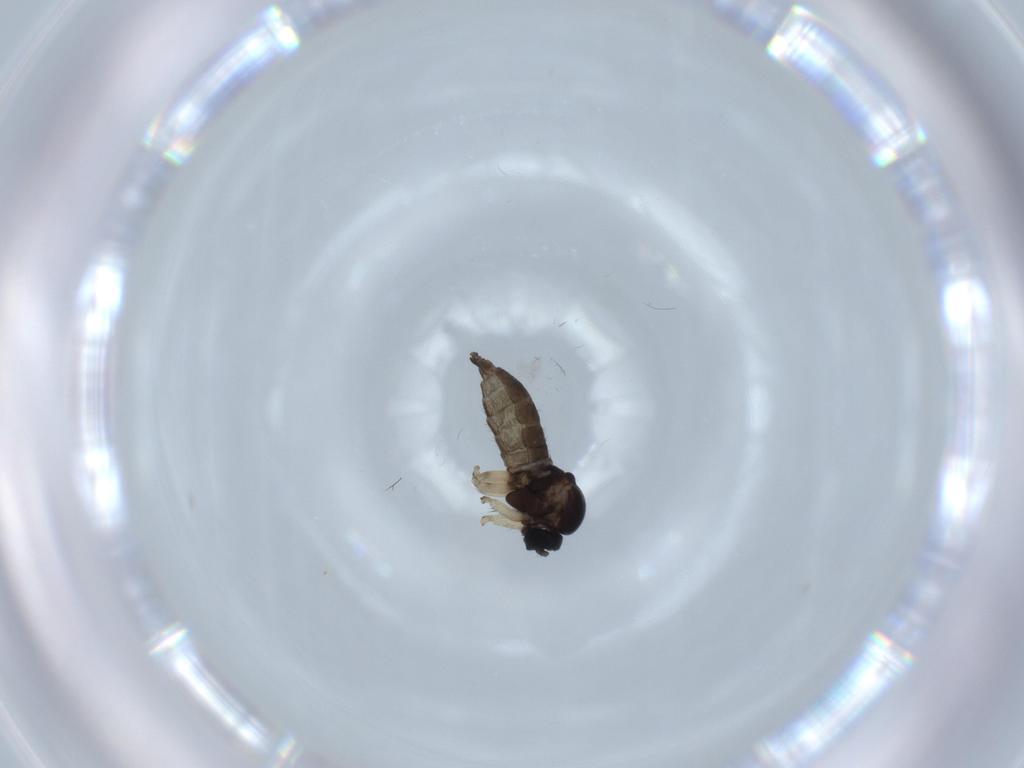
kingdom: Animalia
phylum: Arthropoda
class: Insecta
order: Diptera
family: Sciaridae
